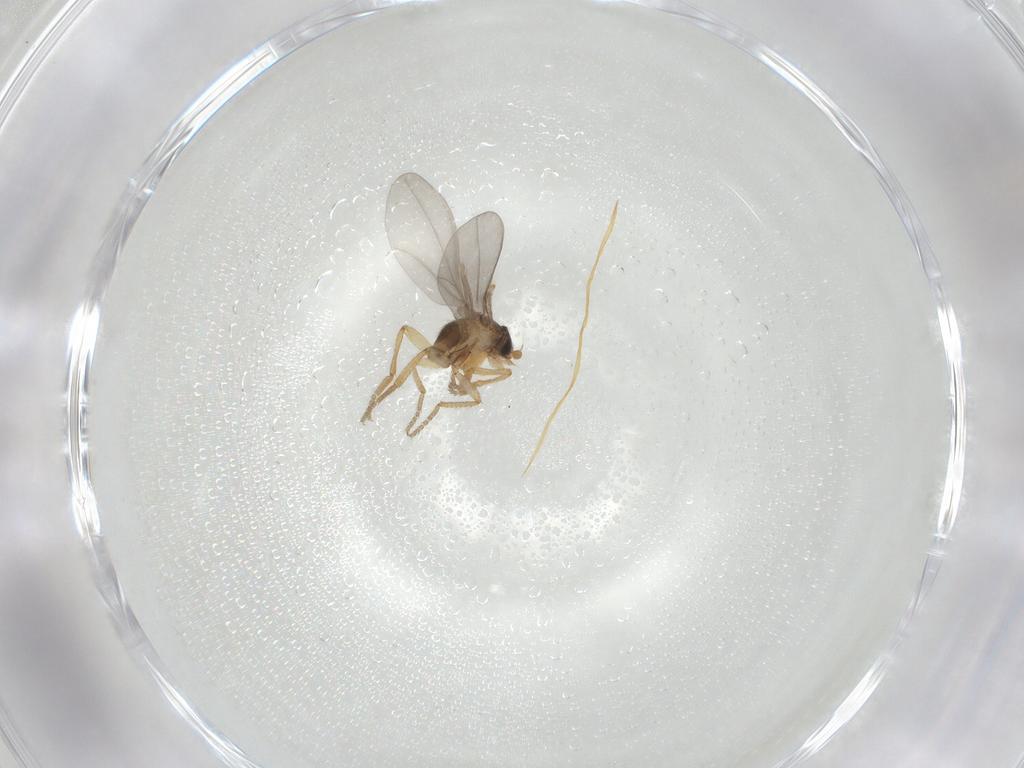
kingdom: Animalia
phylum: Arthropoda
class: Insecta
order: Diptera
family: Phoridae
